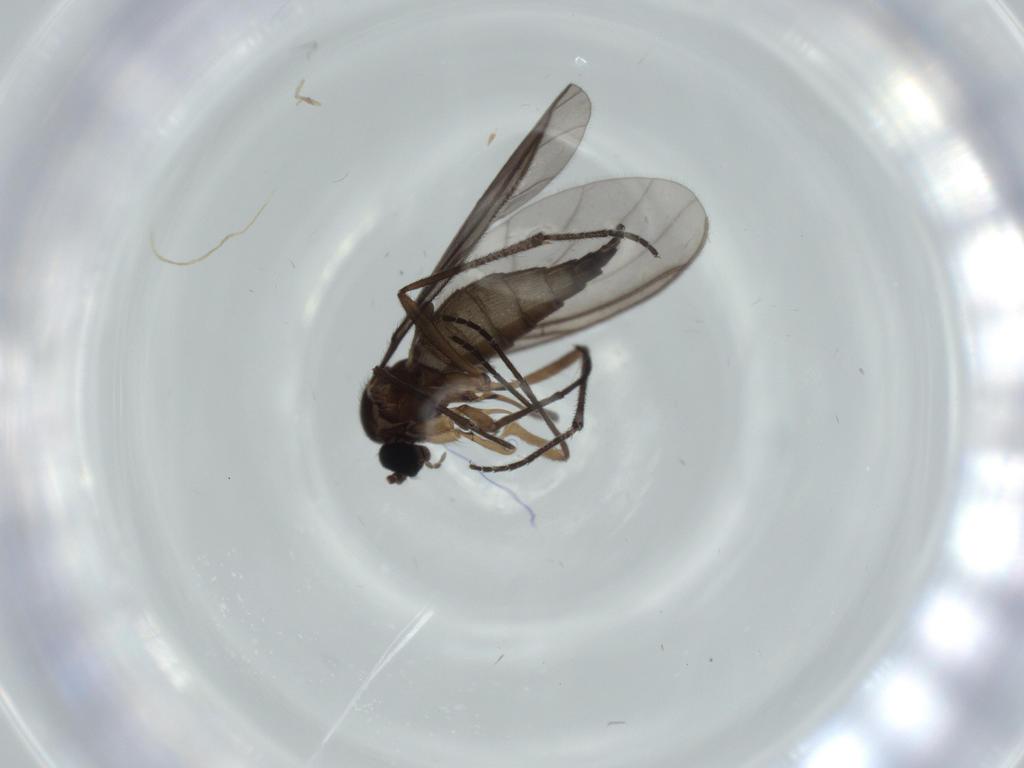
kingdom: Animalia
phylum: Arthropoda
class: Insecta
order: Diptera
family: Sciaridae
